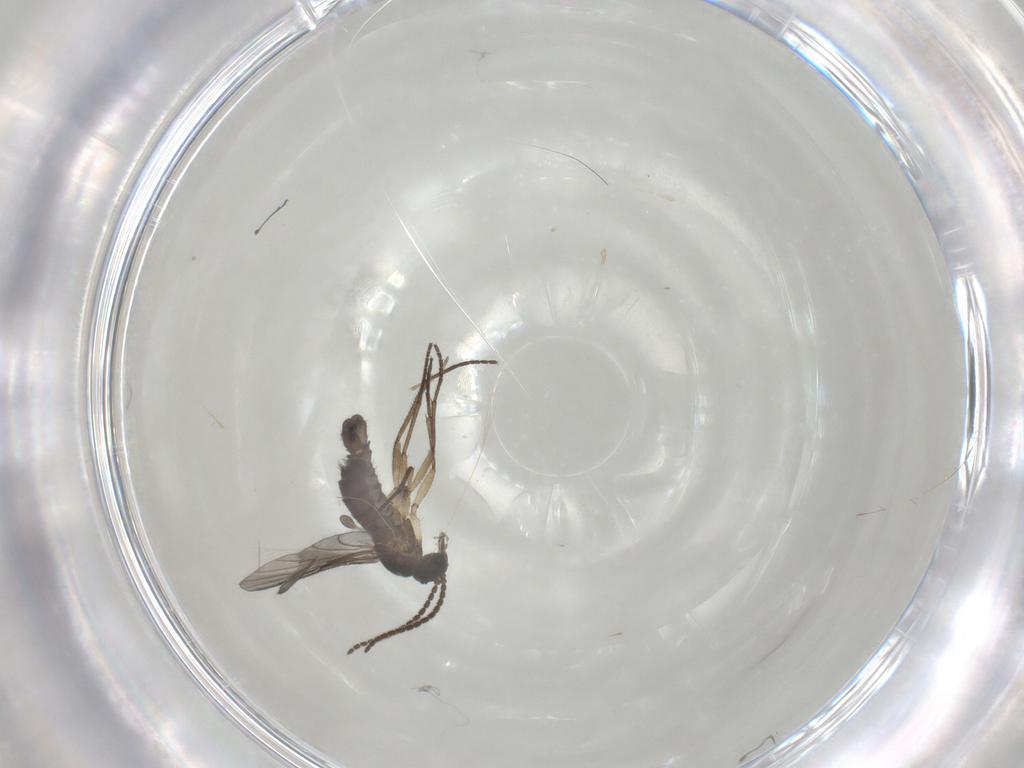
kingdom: Animalia
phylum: Arthropoda
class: Insecta
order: Diptera
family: Sciaridae
